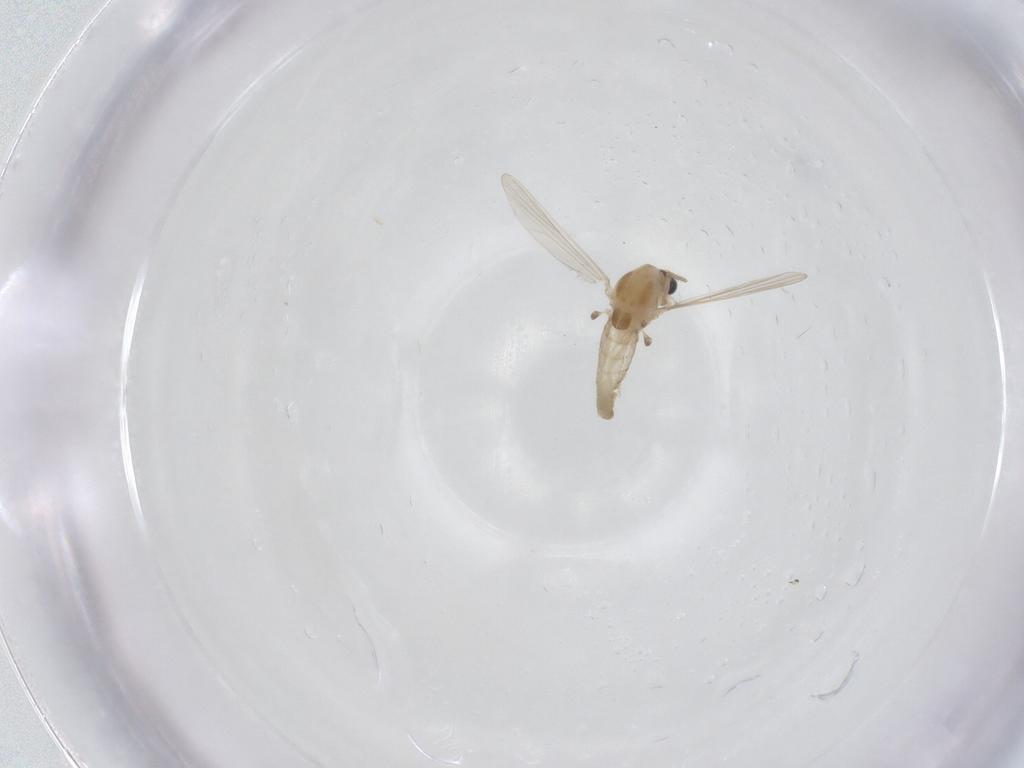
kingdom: Animalia
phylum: Arthropoda
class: Insecta
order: Diptera
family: Chironomidae
